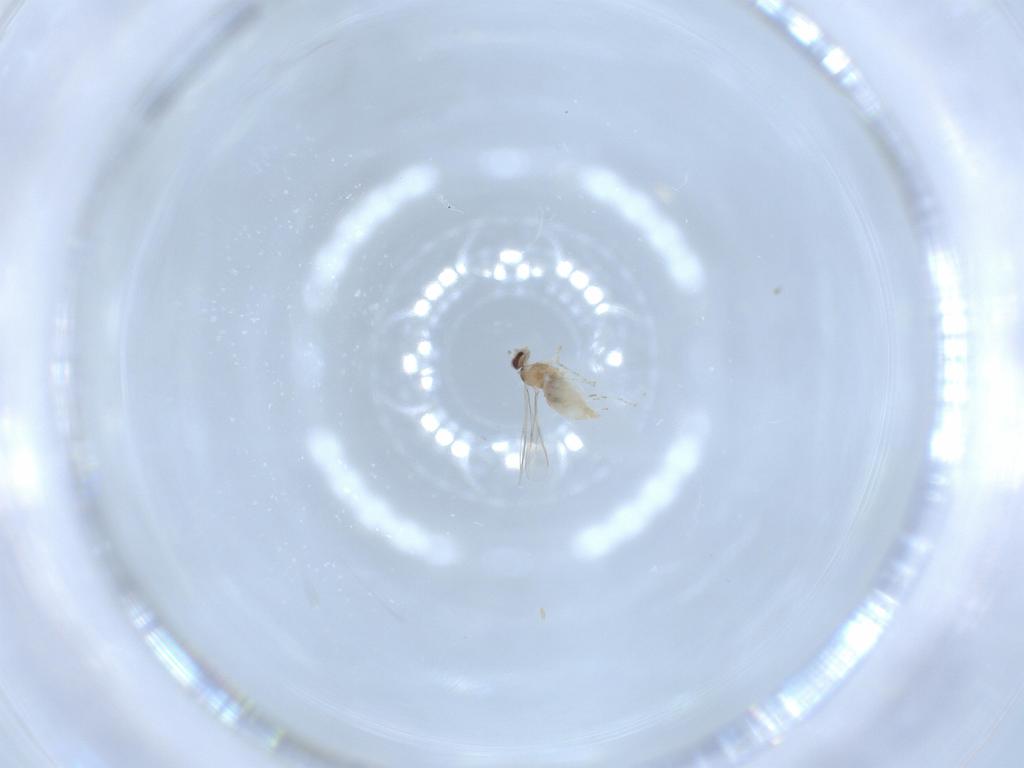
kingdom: Animalia
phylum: Arthropoda
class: Insecta
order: Diptera
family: Cecidomyiidae
